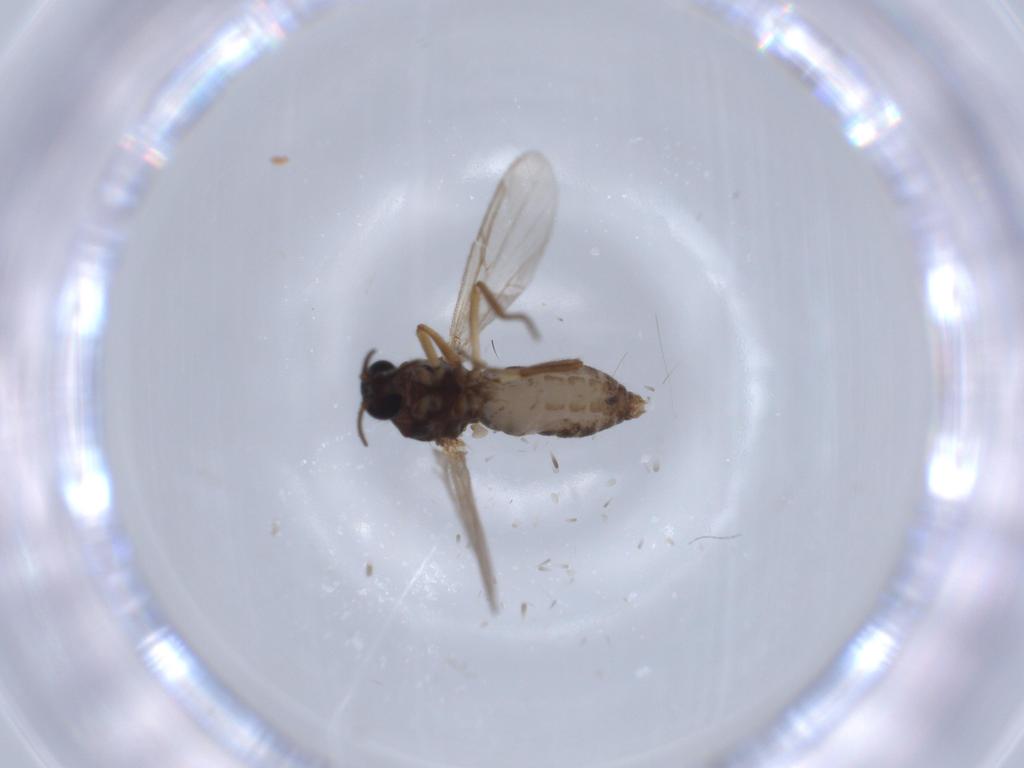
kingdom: Animalia
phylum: Arthropoda
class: Insecta
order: Diptera
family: Ceratopogonidae
